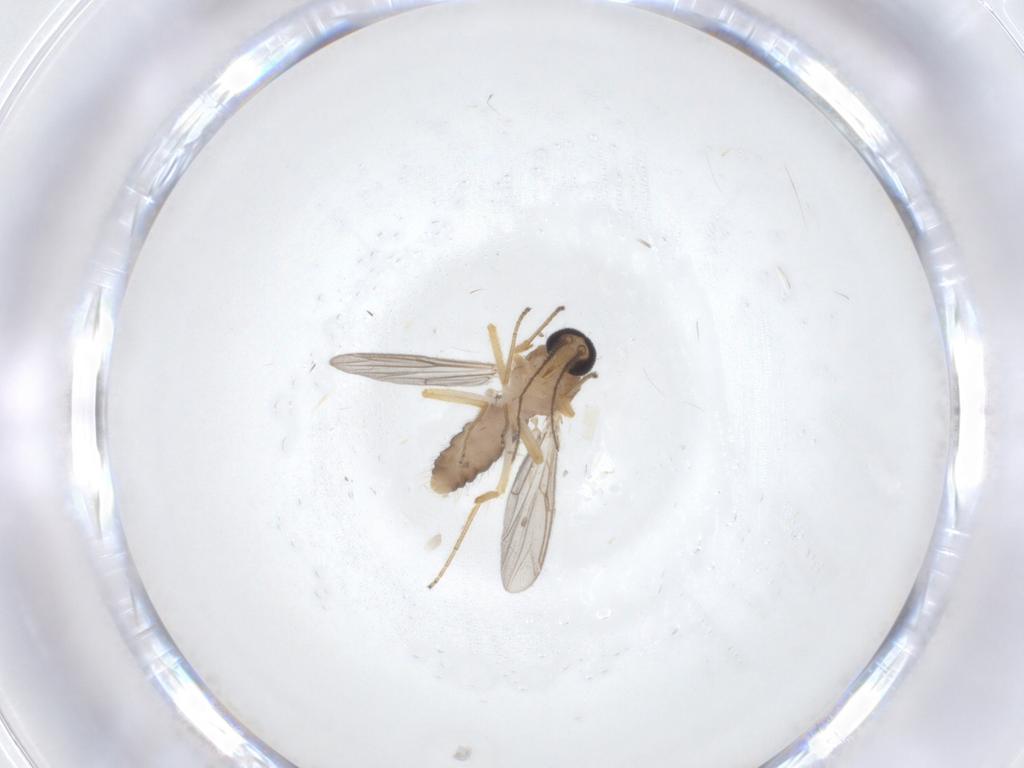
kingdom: Animalia
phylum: Arthropoda
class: Insecta
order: Diptera
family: Ceratopogonidae
